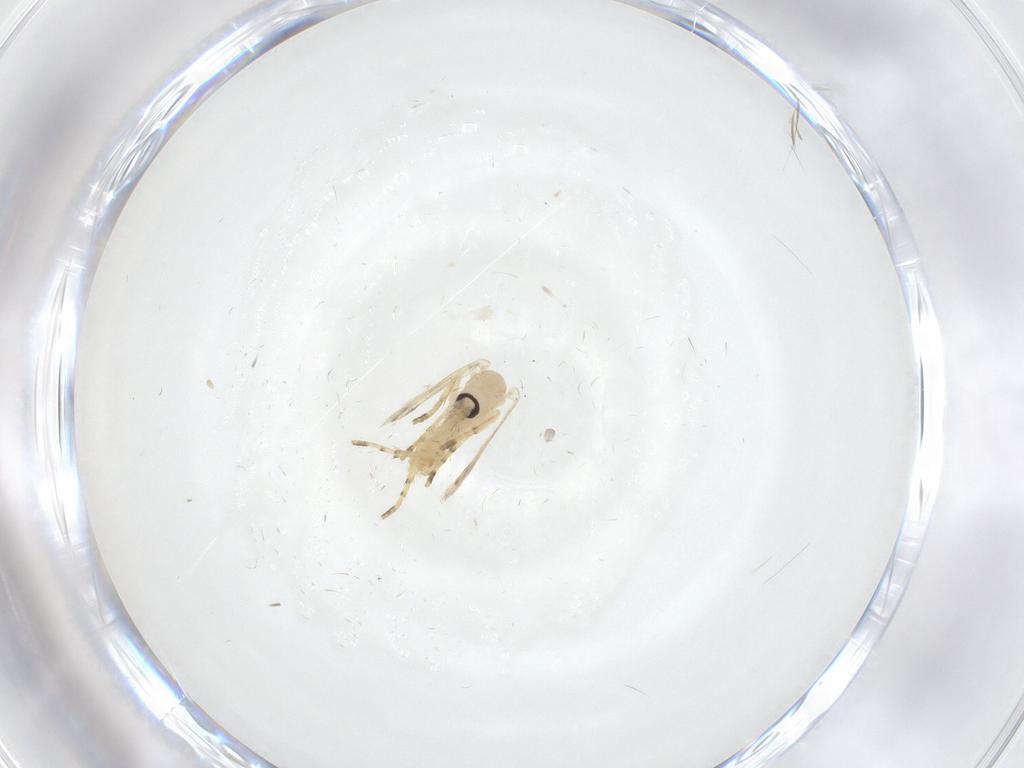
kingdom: Animalia
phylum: Arthropoda
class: Insecta
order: Diptera
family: Psychodidae
